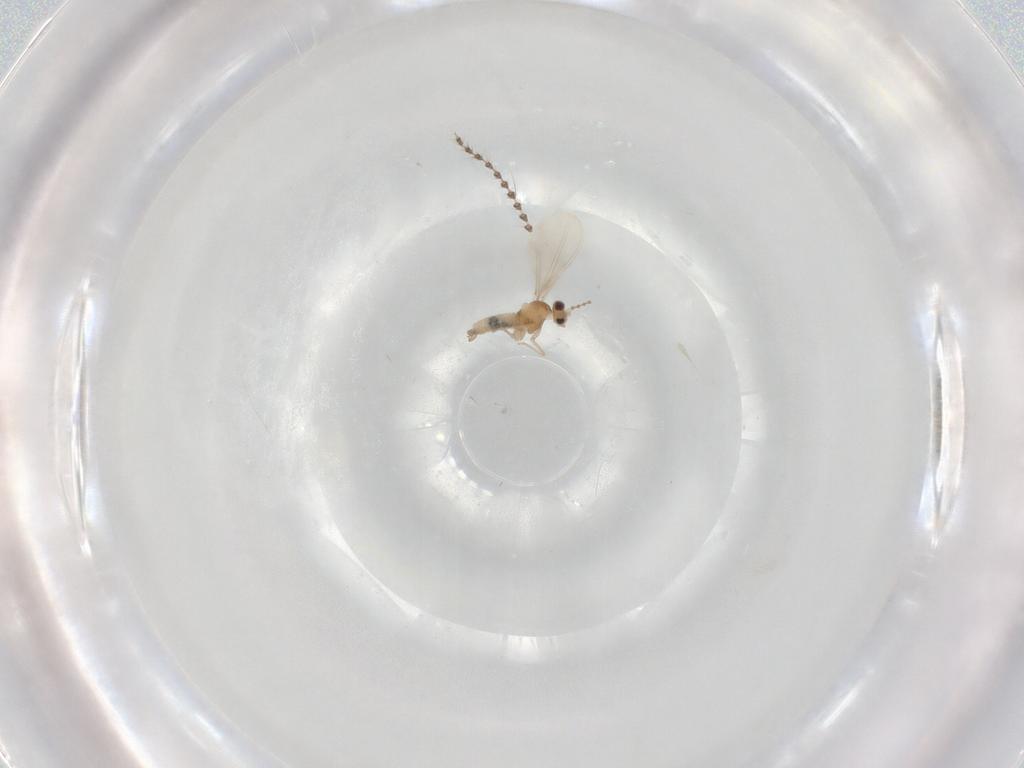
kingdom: Animalia
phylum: Arthropoda
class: Insecta
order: Diptera
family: Cecidomyiidae
